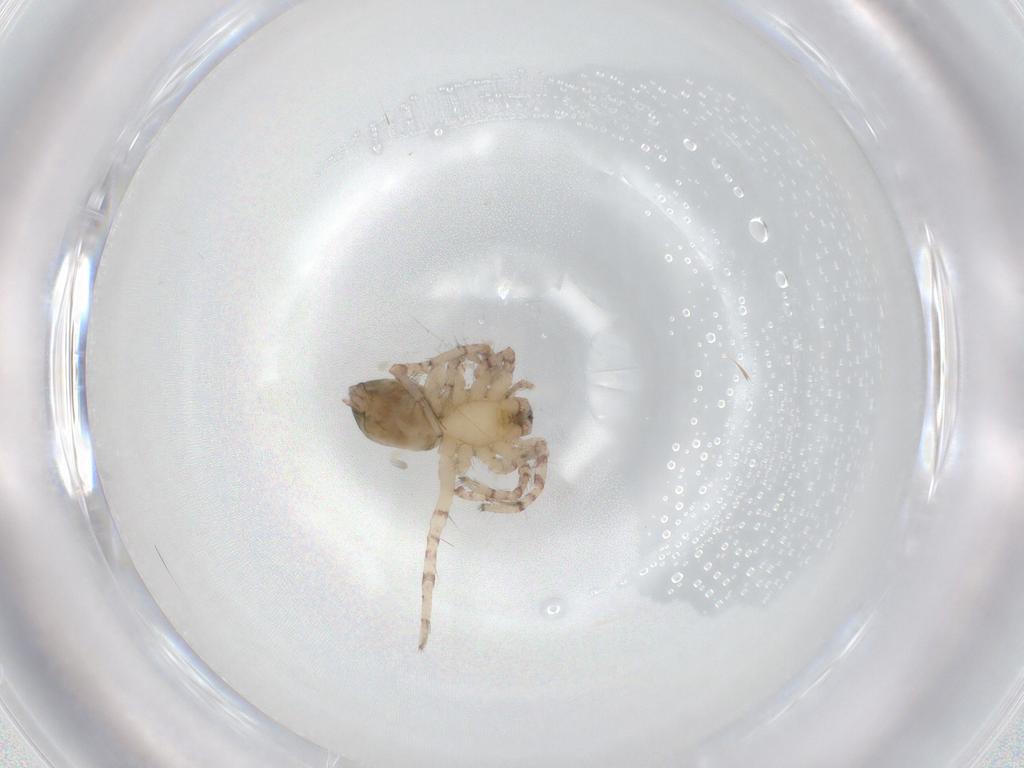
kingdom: Animalia
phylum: Arthropoda
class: Arachnida
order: Araneae
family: Anyphaenidae
